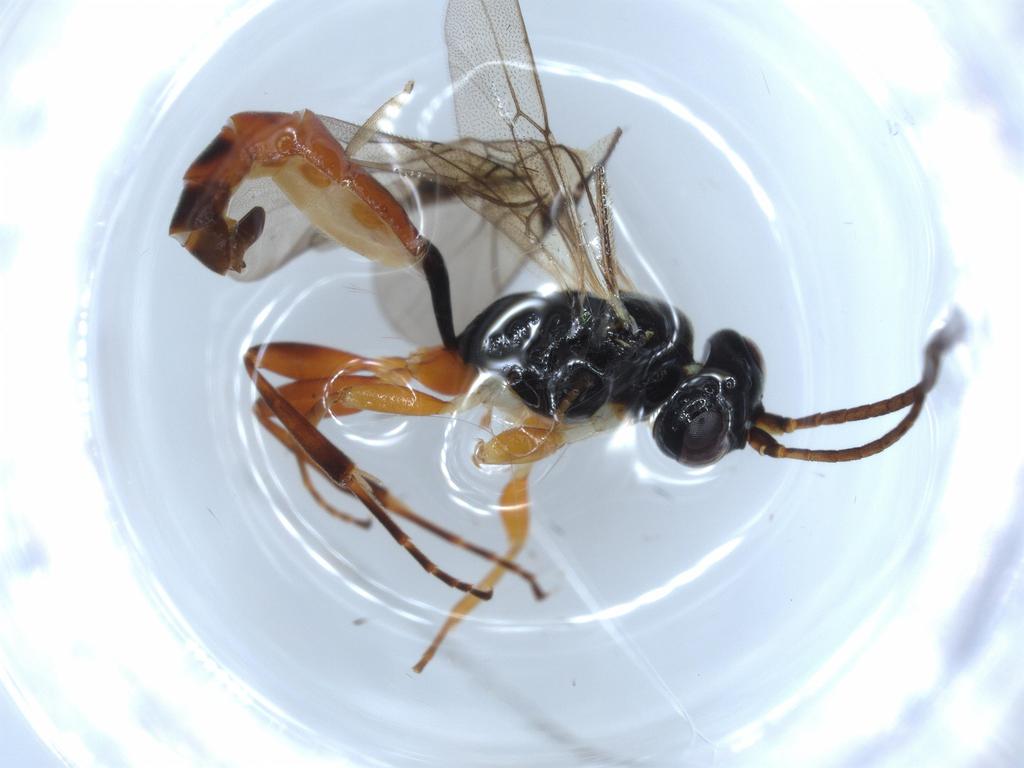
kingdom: Animalia
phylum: Arthropoda
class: Insecta
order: Hymenoptera
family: Ichneumonidae
